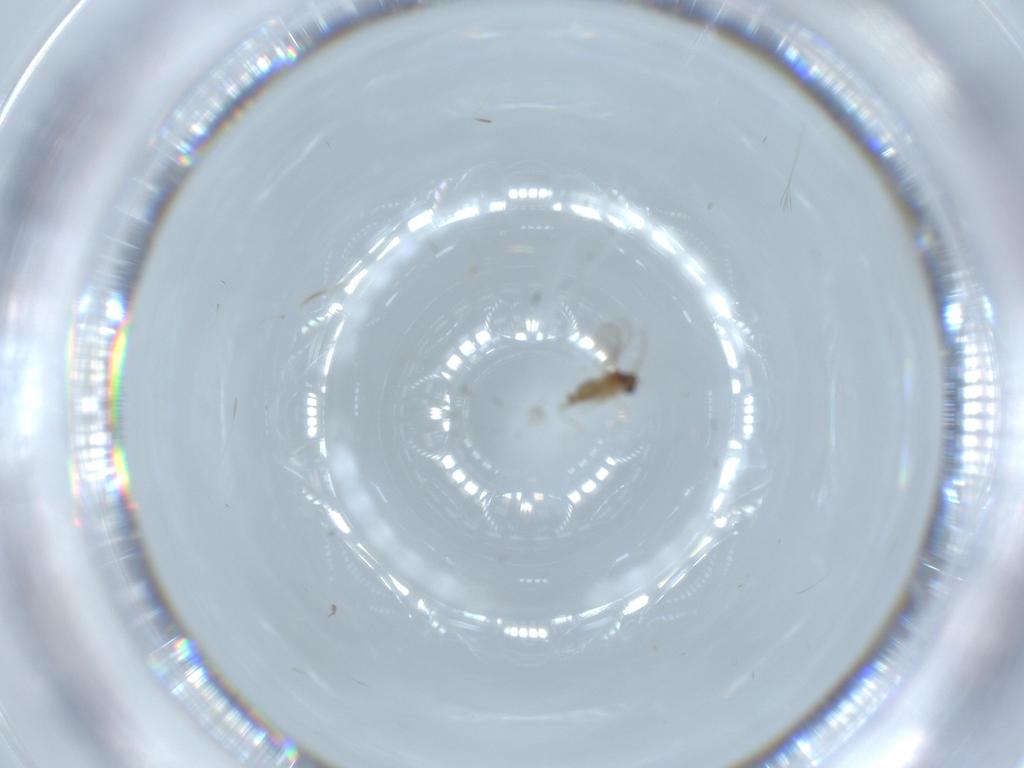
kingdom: Animalia
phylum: Arthropoda
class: Insecta
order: Diptera
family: Cecidomyiidae
